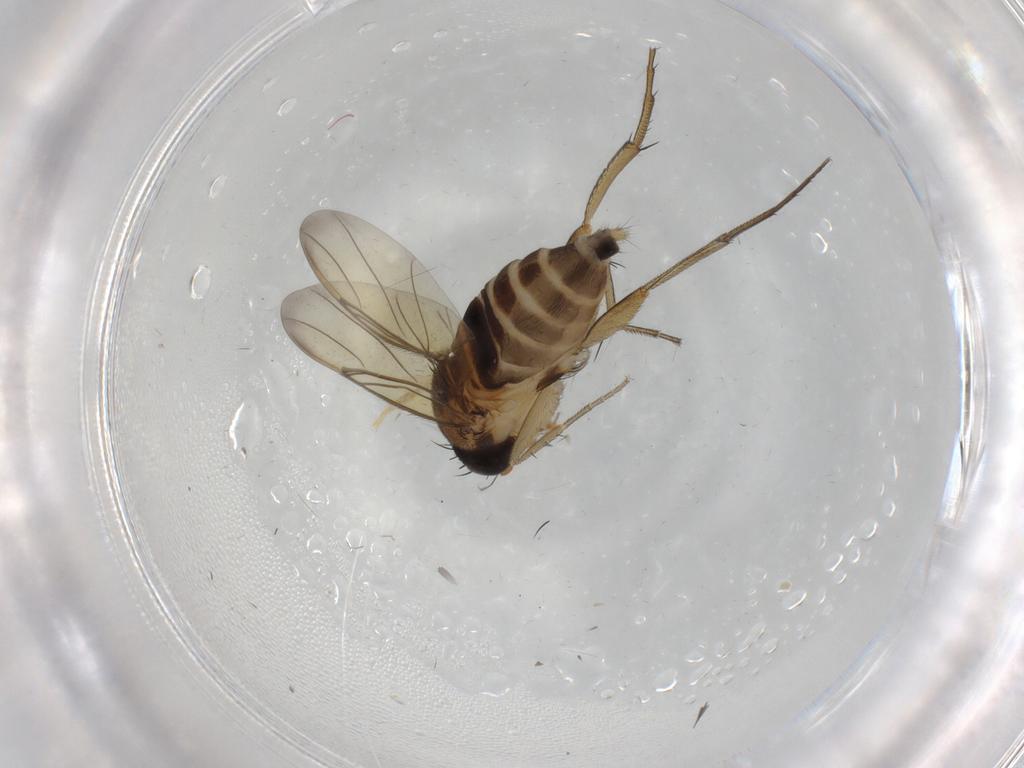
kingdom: Animalia
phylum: Arthropoda
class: Insecta
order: Diptera
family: Psychodidae
